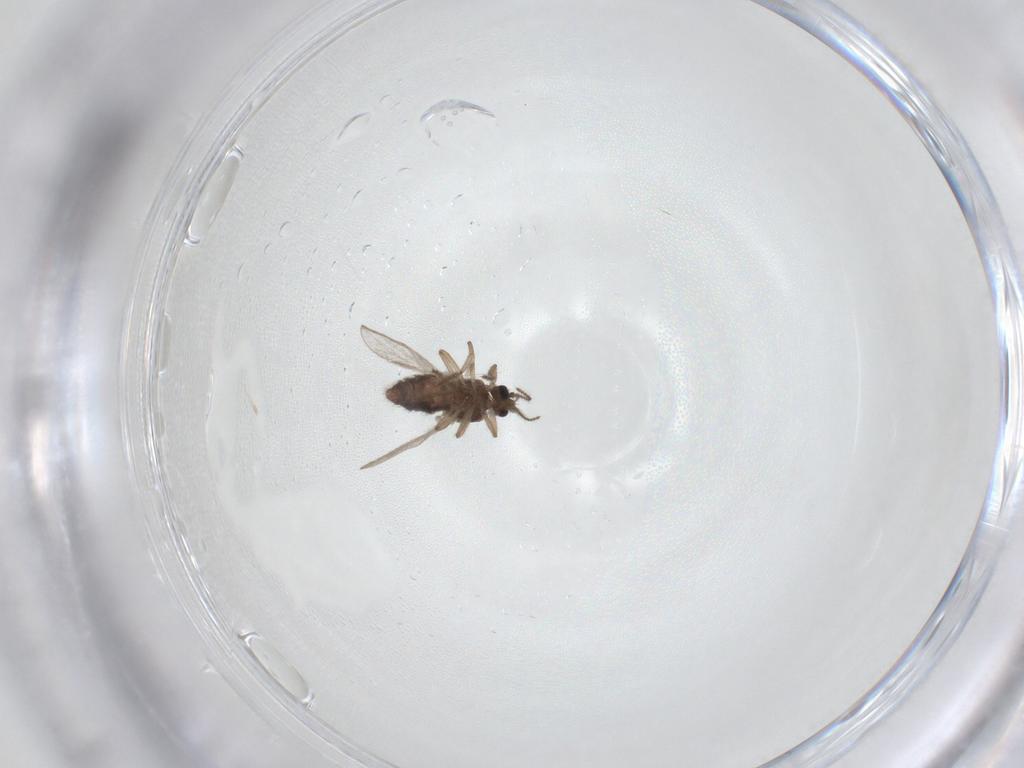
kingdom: Animalia
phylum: Arthropoda
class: Insecta
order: Diptera
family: Ceratopogonidae
